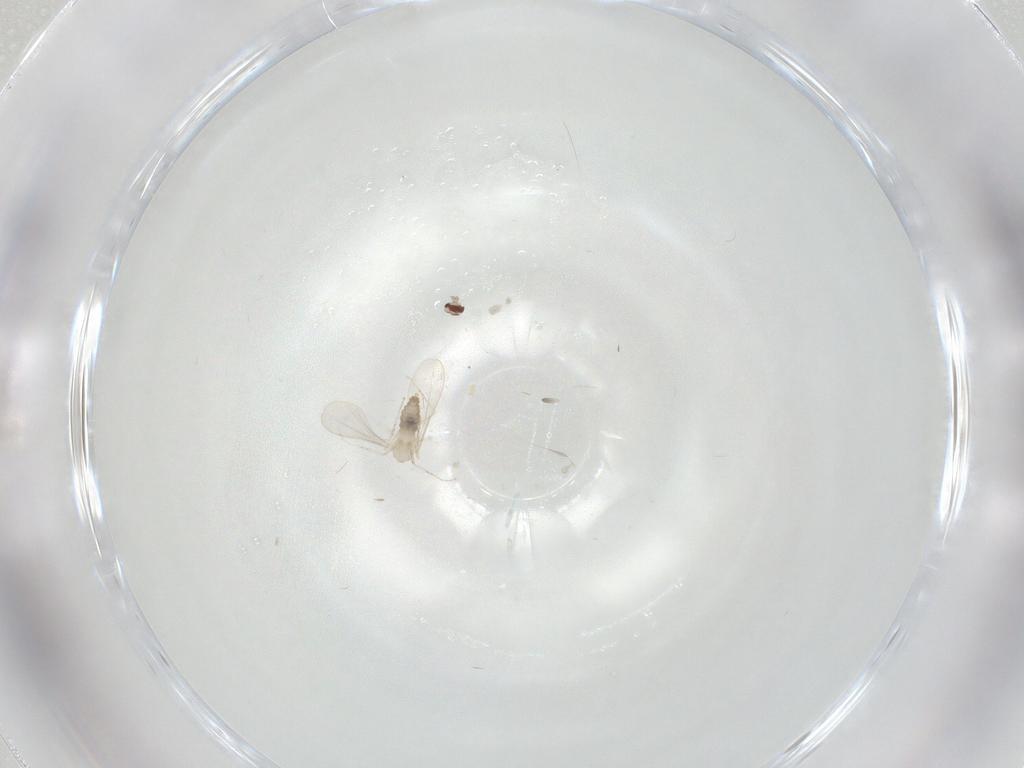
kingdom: Animalia
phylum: Arthropoda
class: Insecta
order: Diptera
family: Cecidomyiidae
